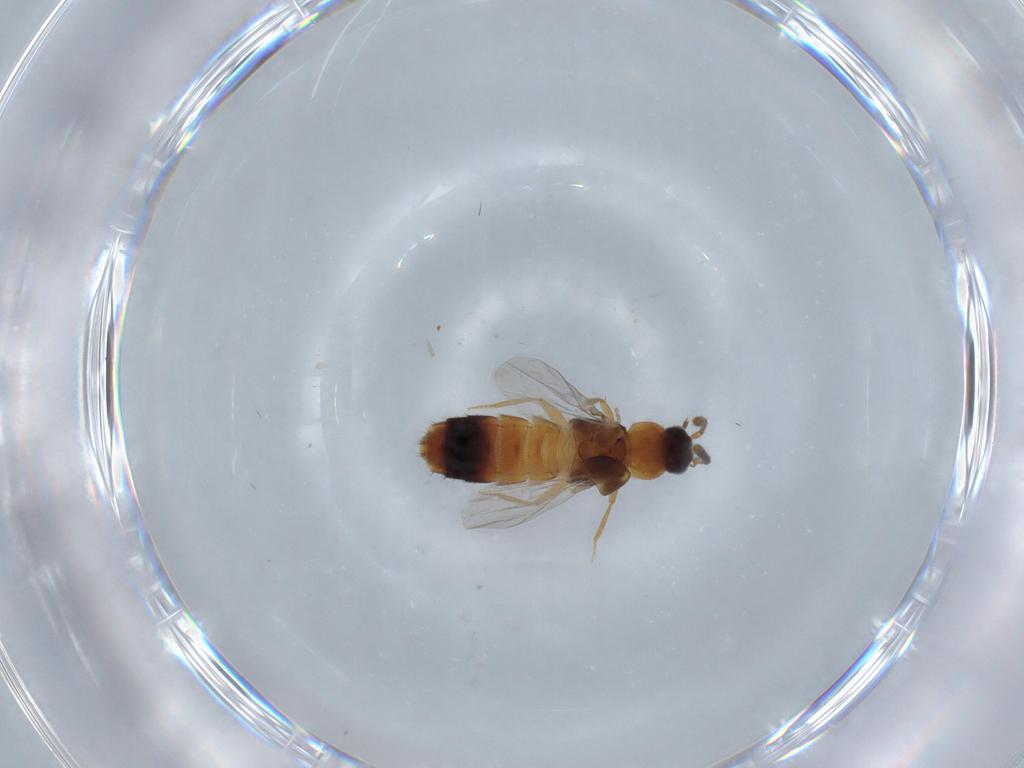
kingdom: Animalia
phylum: Arthropoda
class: Insecta
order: Coleoptera
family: Staphylinidae
